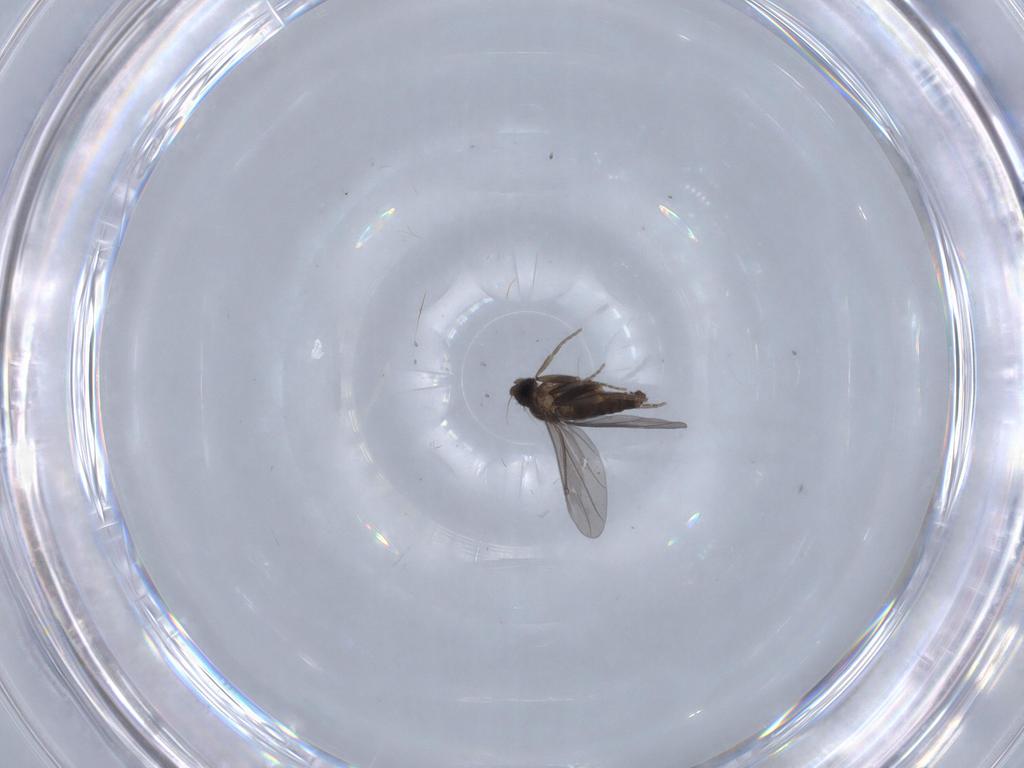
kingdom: Animalia
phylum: Arthropoda
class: Insecta
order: Diptera
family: Phoridae
